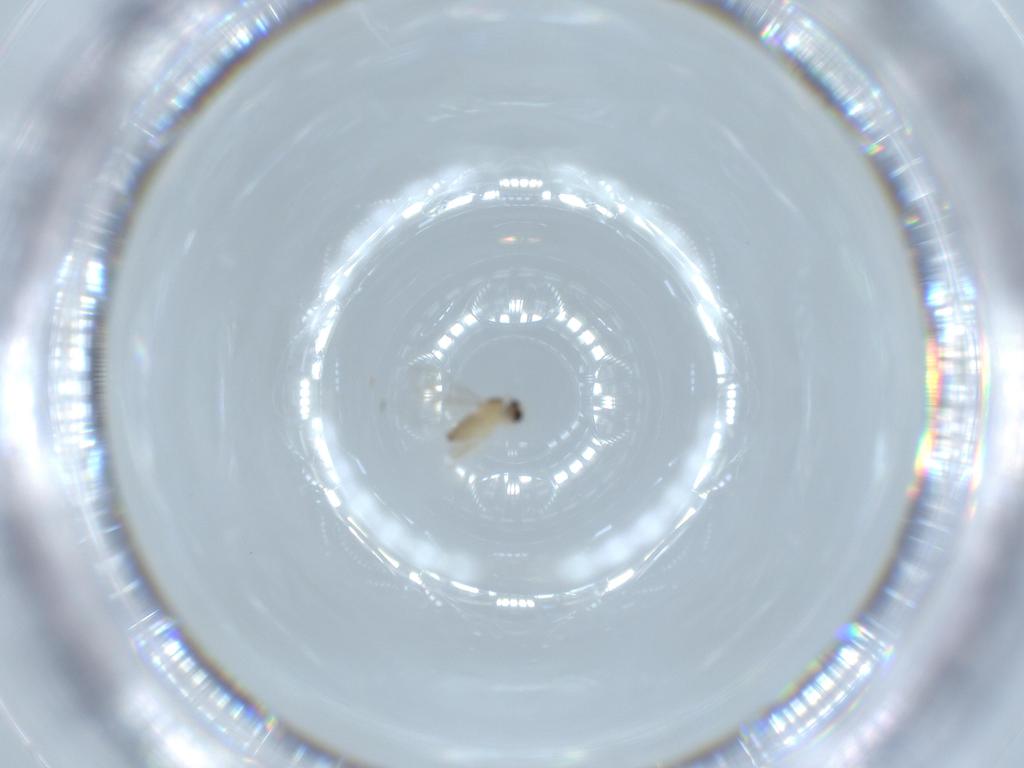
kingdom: Animalia
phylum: Arthropoda
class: Insecta
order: Diptera
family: Cecidomyiidae
